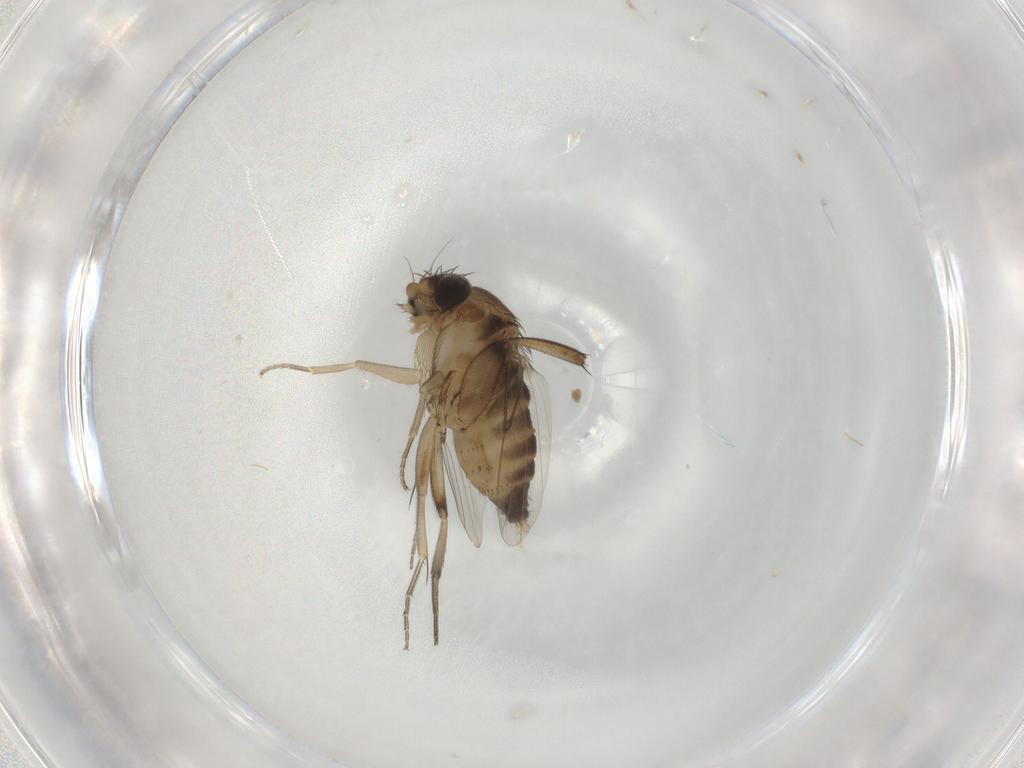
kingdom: Animalia
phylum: Arthropoda
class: Insecta
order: Diptera
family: Phoridae
